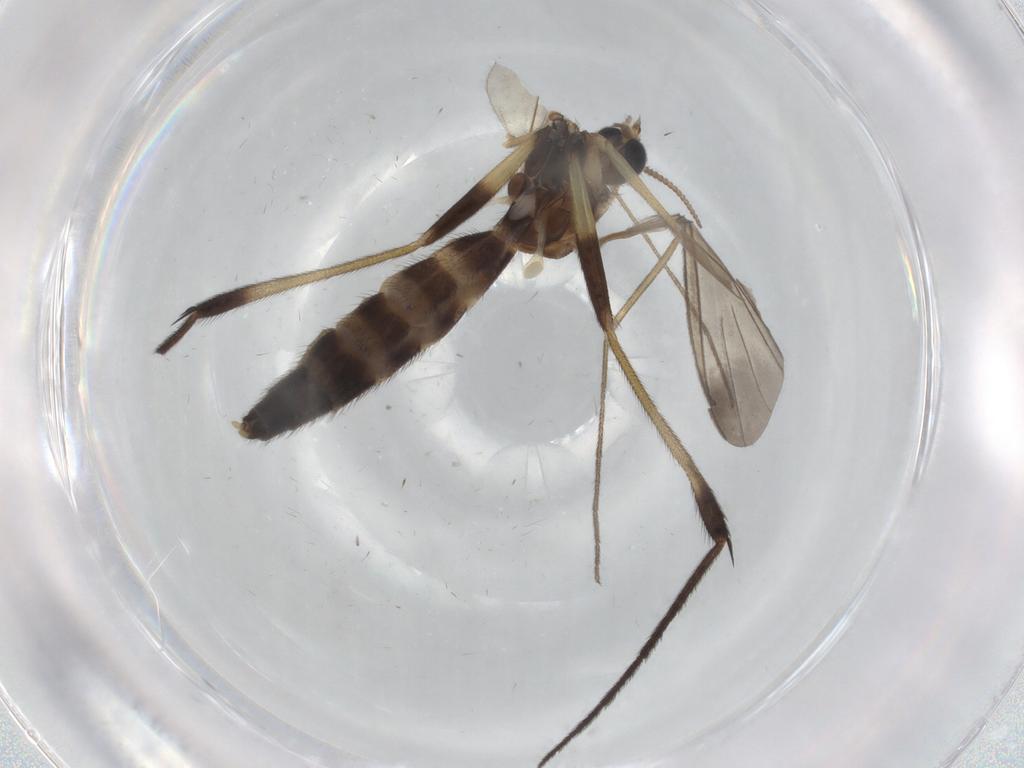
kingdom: Animalia
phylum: Arthropoda
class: Insecta
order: Diptera
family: Keroplatidae
